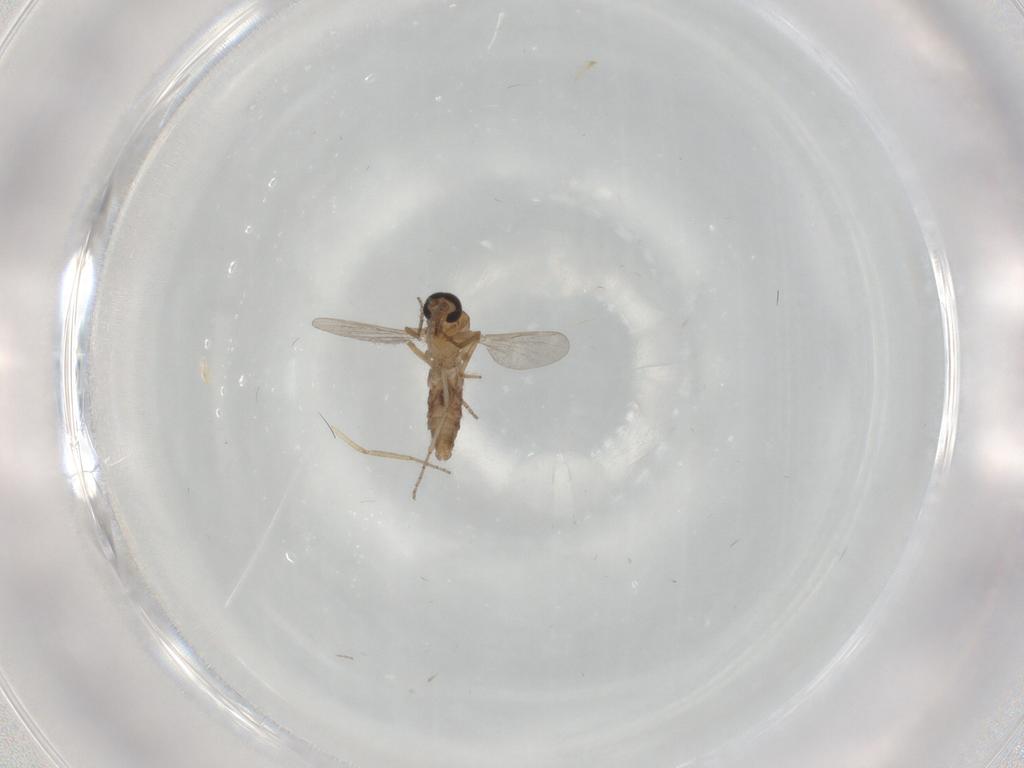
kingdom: Animalia
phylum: Arthropoda
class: Insecta
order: Diptera
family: Ceratopogonidae
